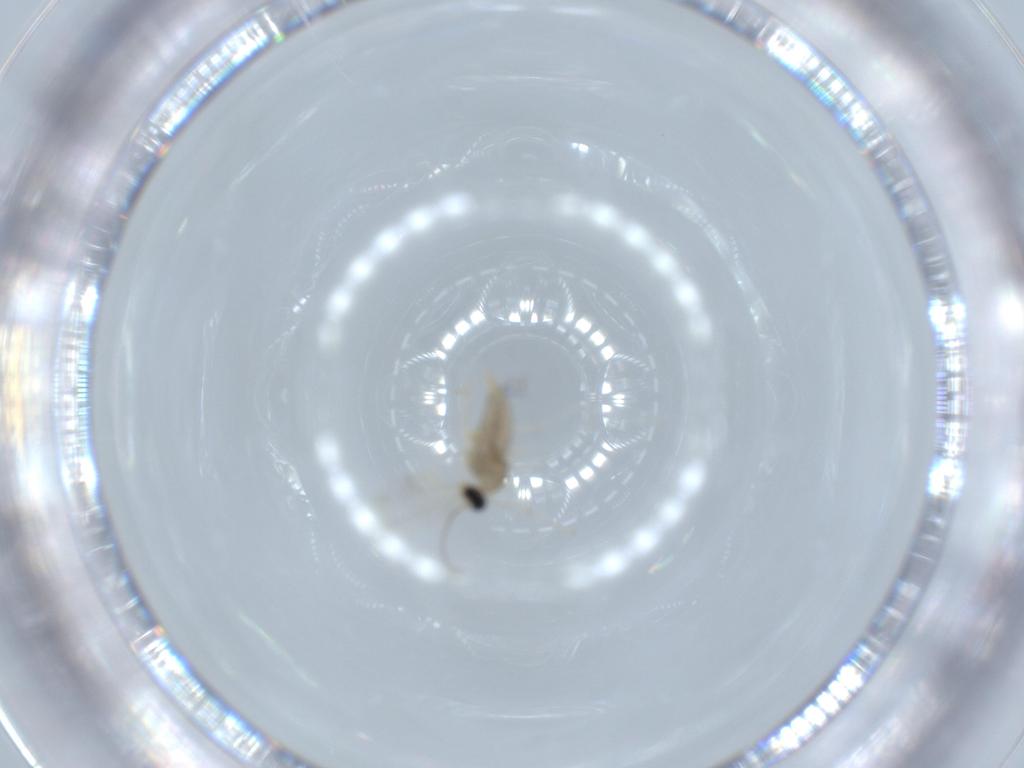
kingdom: Animalia
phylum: Arthropoda
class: Insecta
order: Diptera
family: Cecidomyiidae
